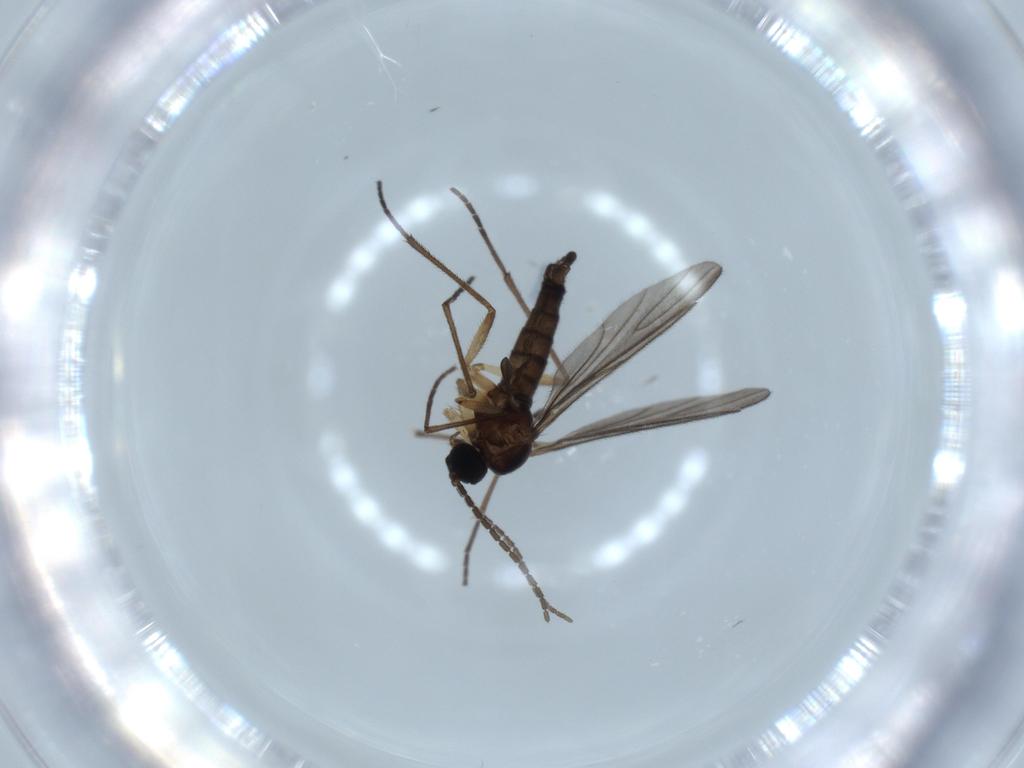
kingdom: Animalia
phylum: Arthropoda
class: Insecta
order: Diptera
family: Sciaridae
